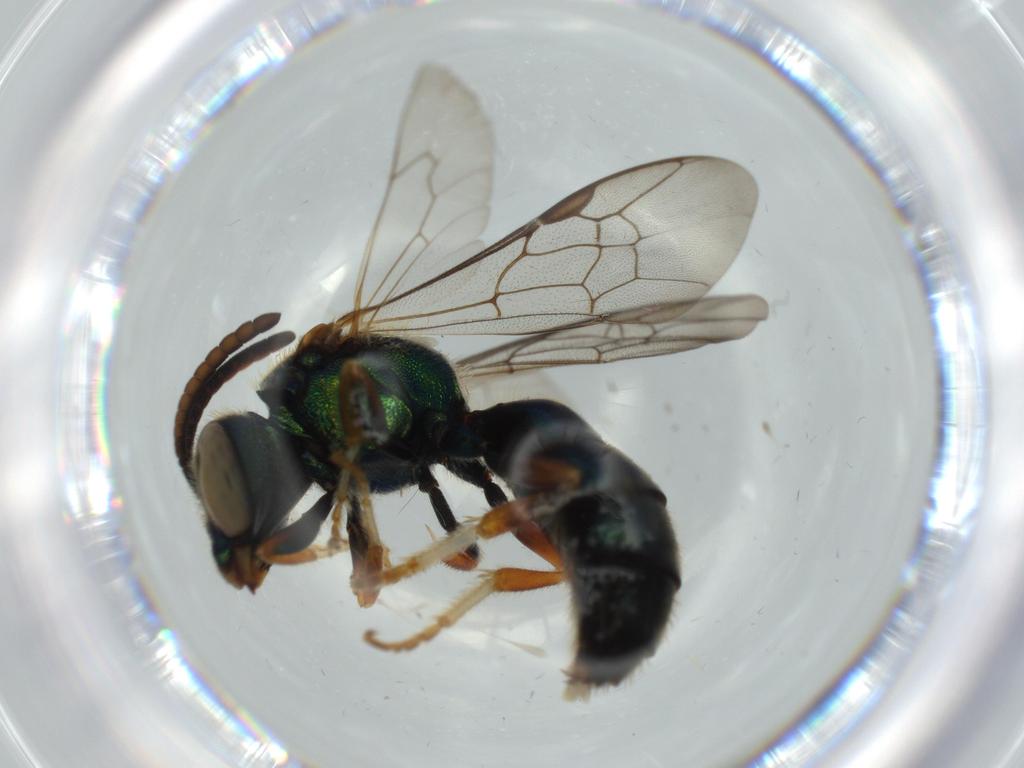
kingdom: Animalia
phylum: Arthropoda
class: Insecta
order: Hymenoptera
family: Halictidae
